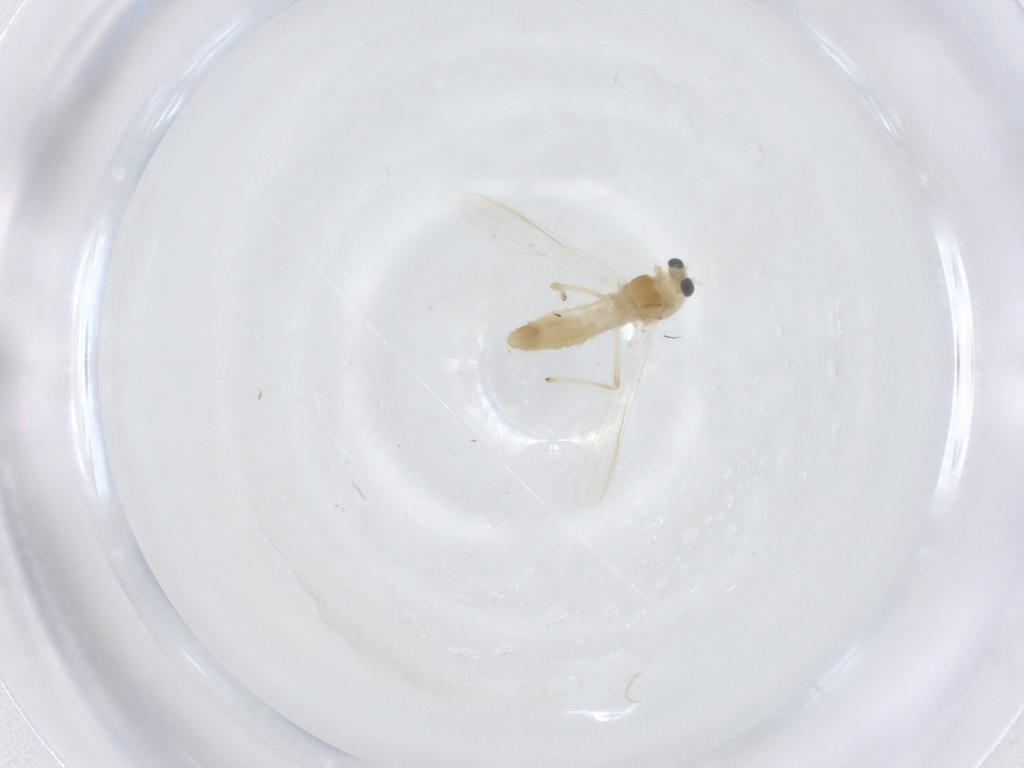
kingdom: Animalia
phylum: Arthropoda
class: Insecta
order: Diptera
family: Chironomidae
